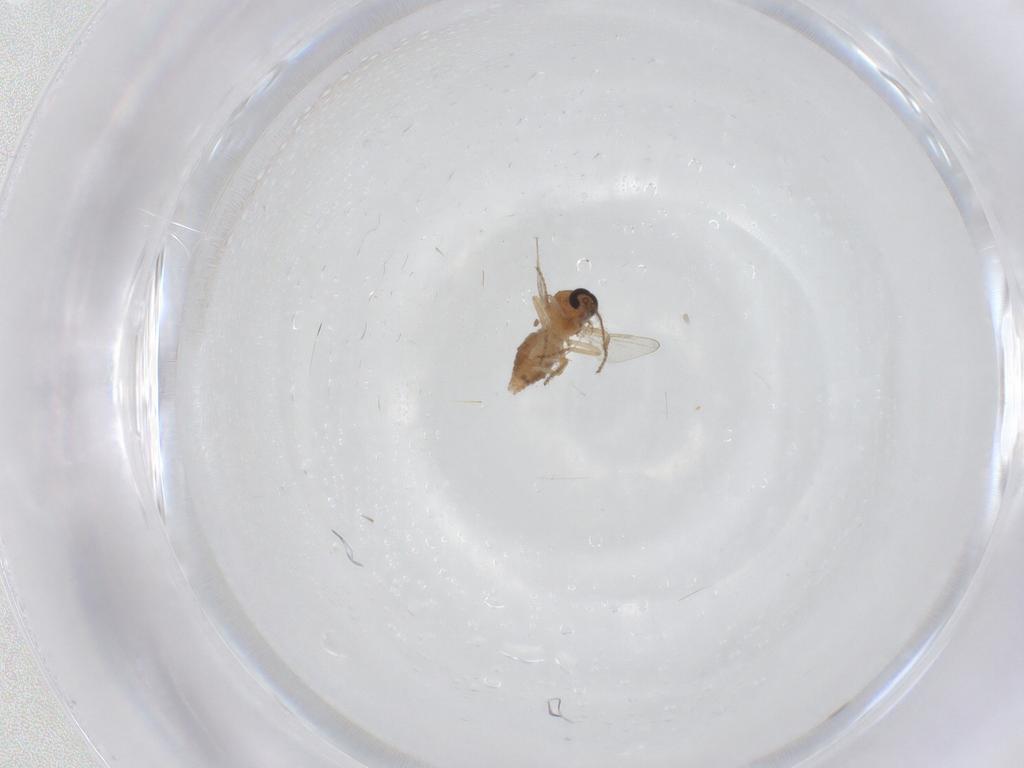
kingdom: Animalia
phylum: Arthropoda
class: Insecta
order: Diptera
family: Ceratopogonidae
